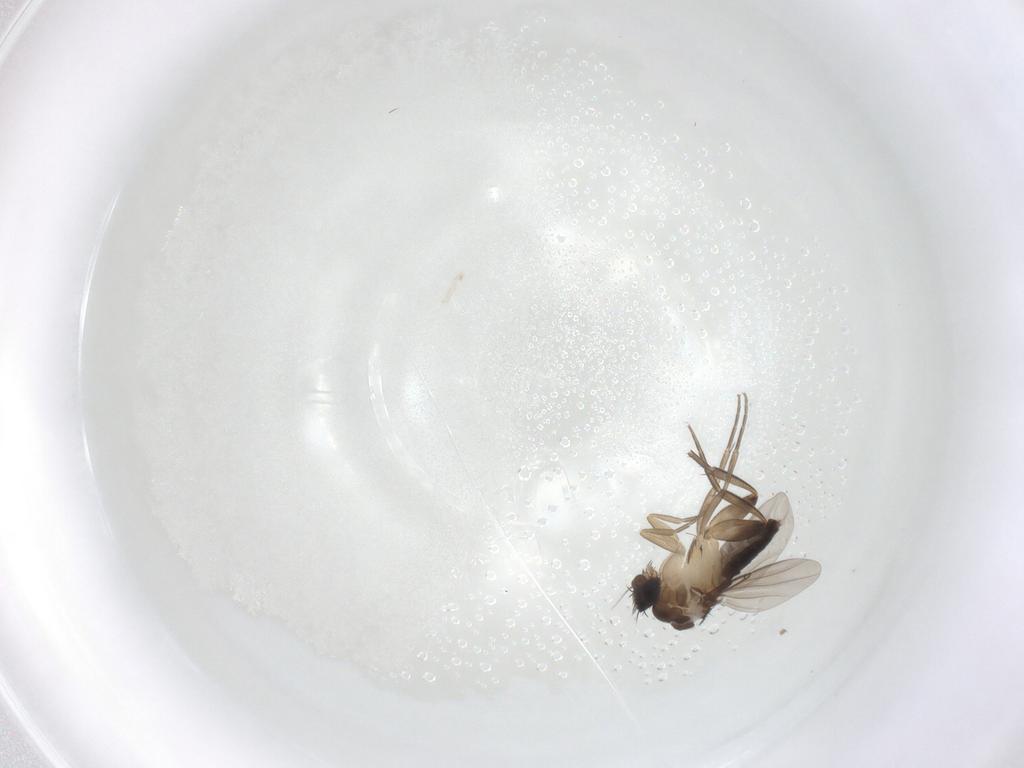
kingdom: Animalia
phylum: Arthropoda
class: Insecta
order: Diptera
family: Phoridae
